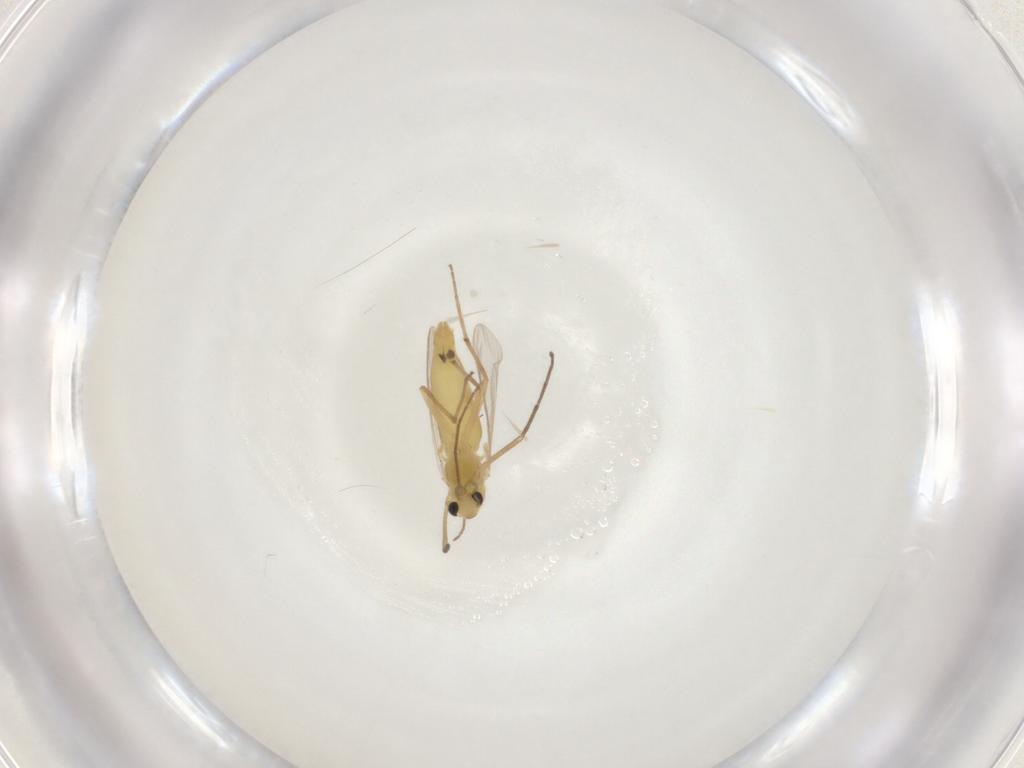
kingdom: Animalia
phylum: Arthropoda
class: Insecta
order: Diptera
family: Chironomidae
